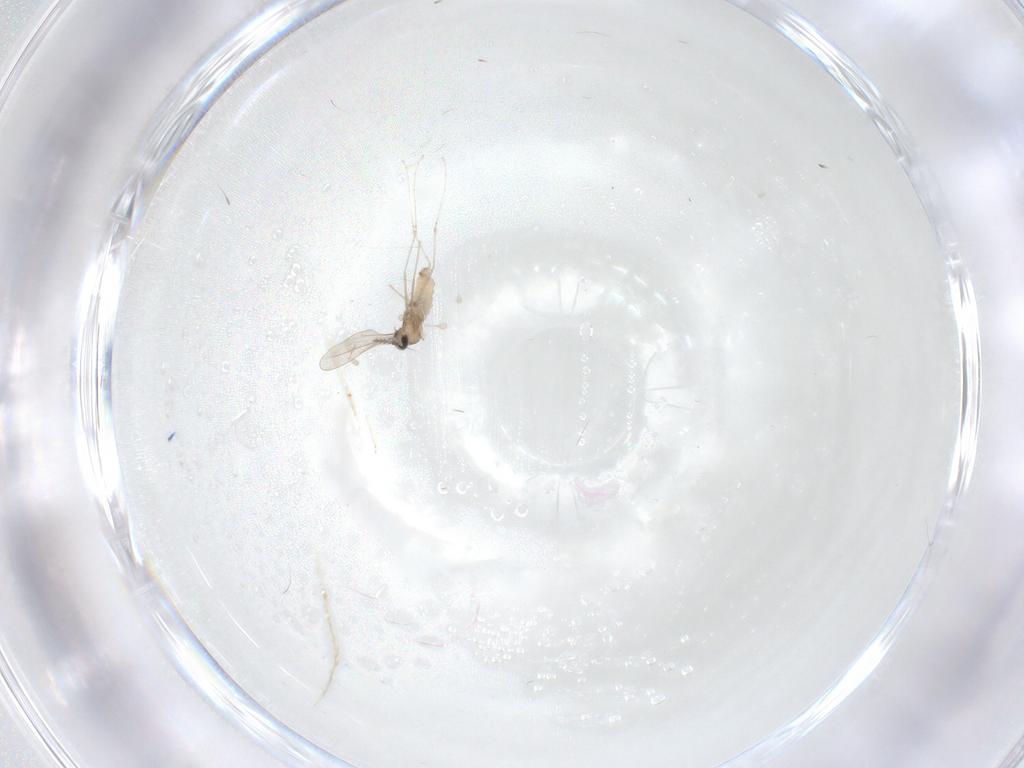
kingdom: Animalia
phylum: Arthropoda
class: Insecta
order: Diptera
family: Cecidomyiidae
